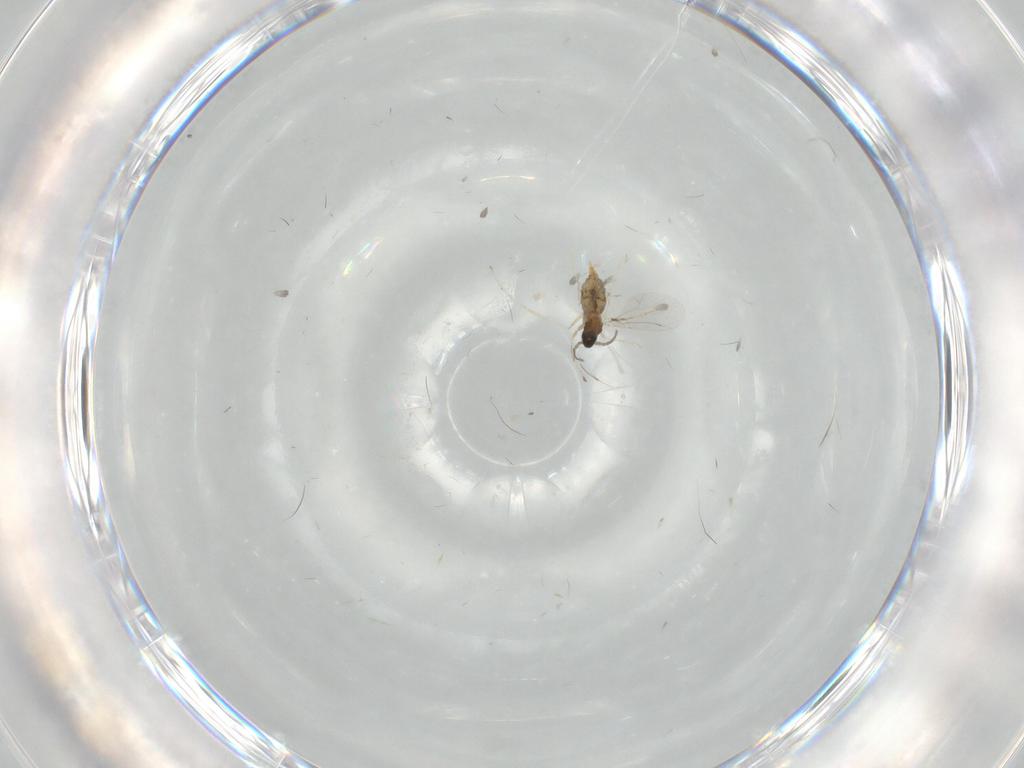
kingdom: Animalia
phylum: Arthropoda
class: Insecta
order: Diptera
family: Cecidomyiidae
